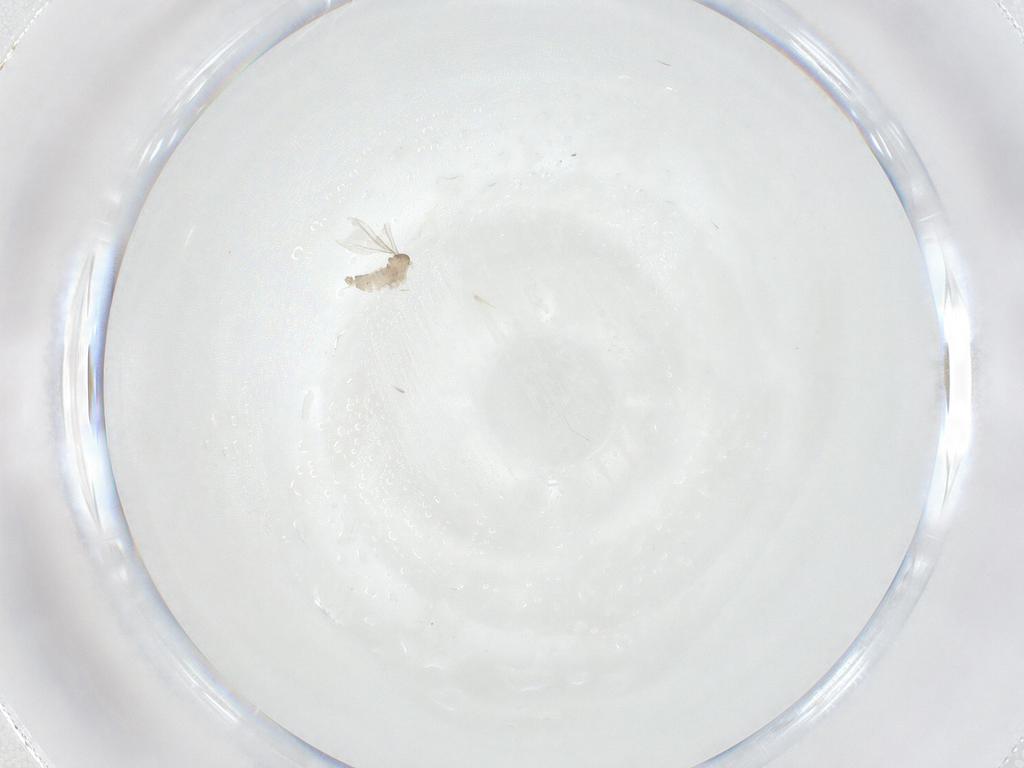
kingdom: Animalia
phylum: Arthropoda
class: Insecta
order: Diptera
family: Cecidomyiidae
